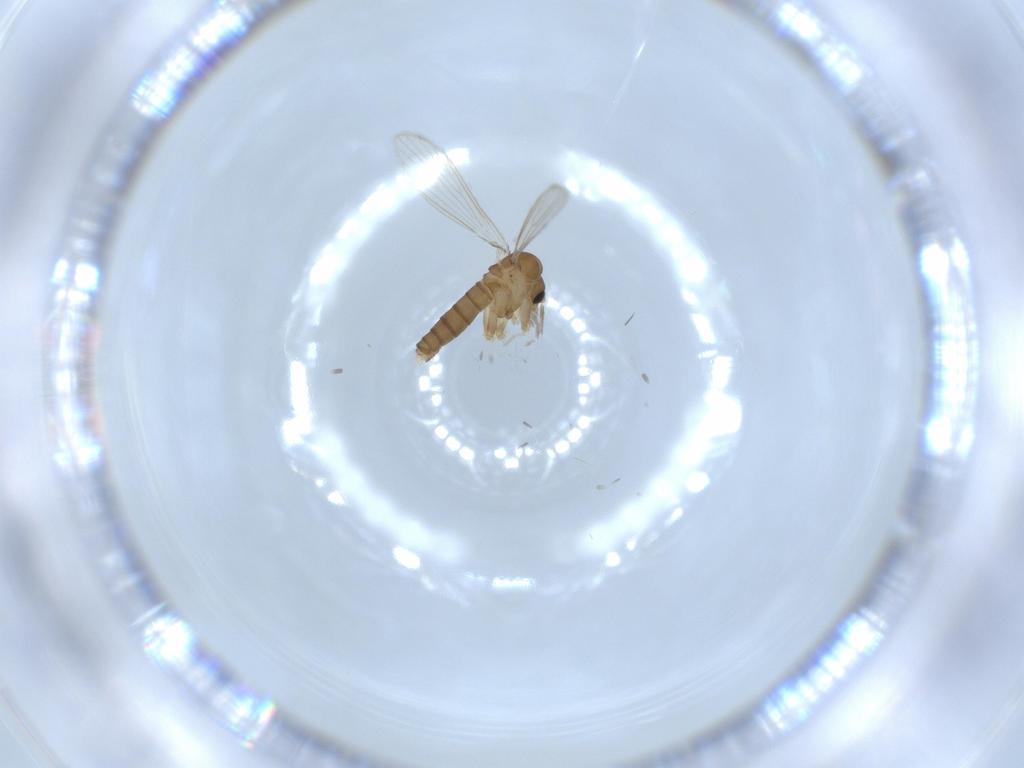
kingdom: Animalia
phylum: Arthropoda
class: Insecta
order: Diptera
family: Psychodidae
